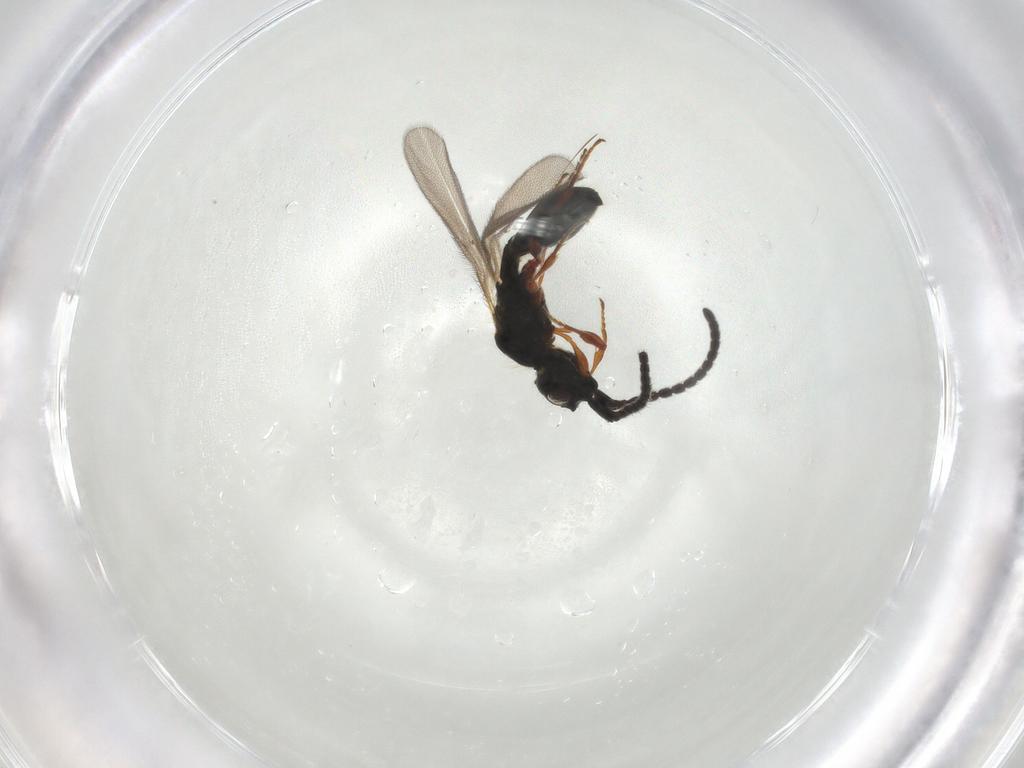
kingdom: Animalia
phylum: Arthropoda
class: Insecta
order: Hymenoptera
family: Diapriidae
